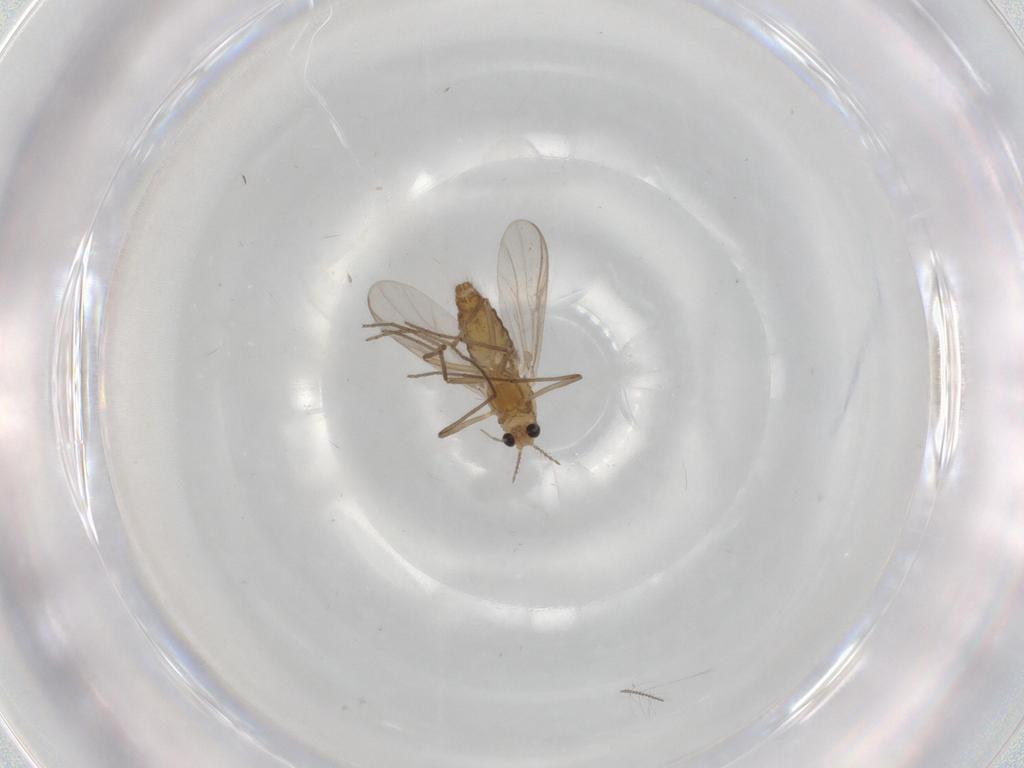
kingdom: Animalia
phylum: Arthropoda
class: Insecta
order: Diptera
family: Chironomidae
